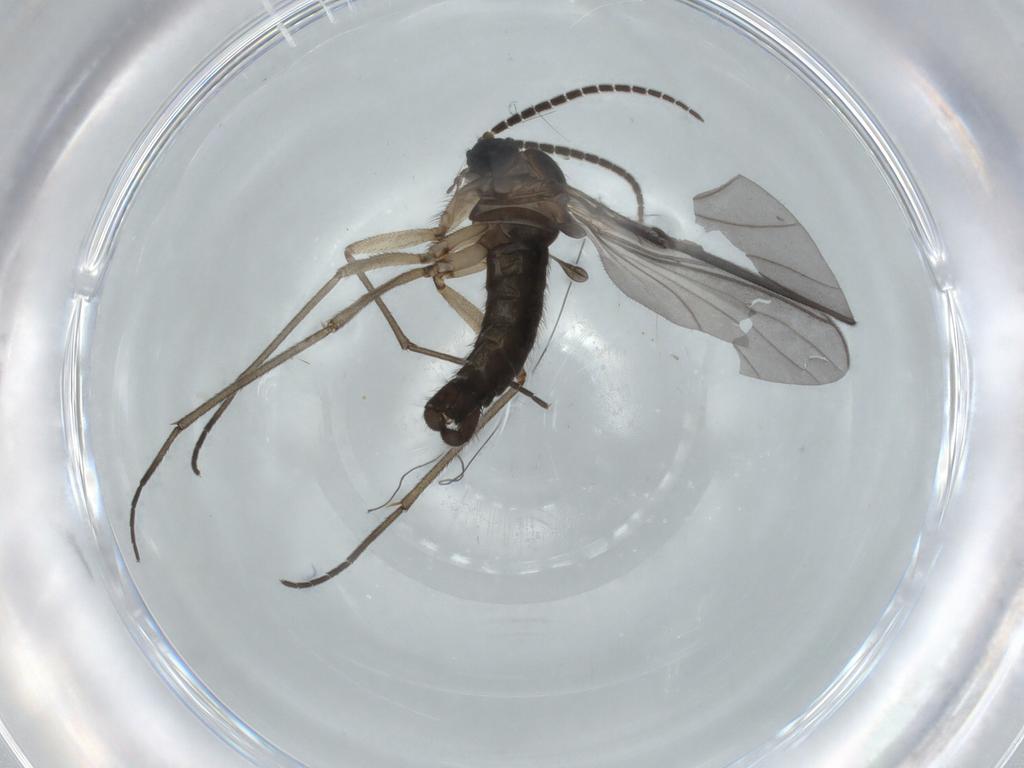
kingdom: Animalia
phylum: Arthropoda
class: Insecta
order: Diptera
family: Sciaridae
